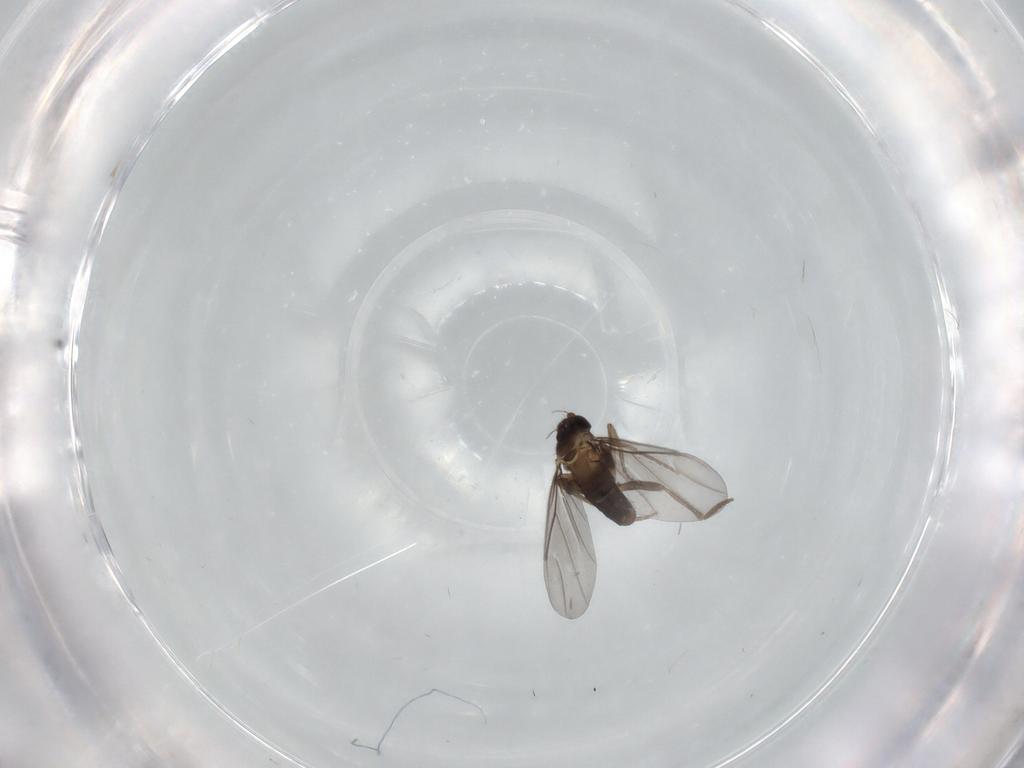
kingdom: Animalia
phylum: Arthropoda
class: Insecta
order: Diptera
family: Phoridae
